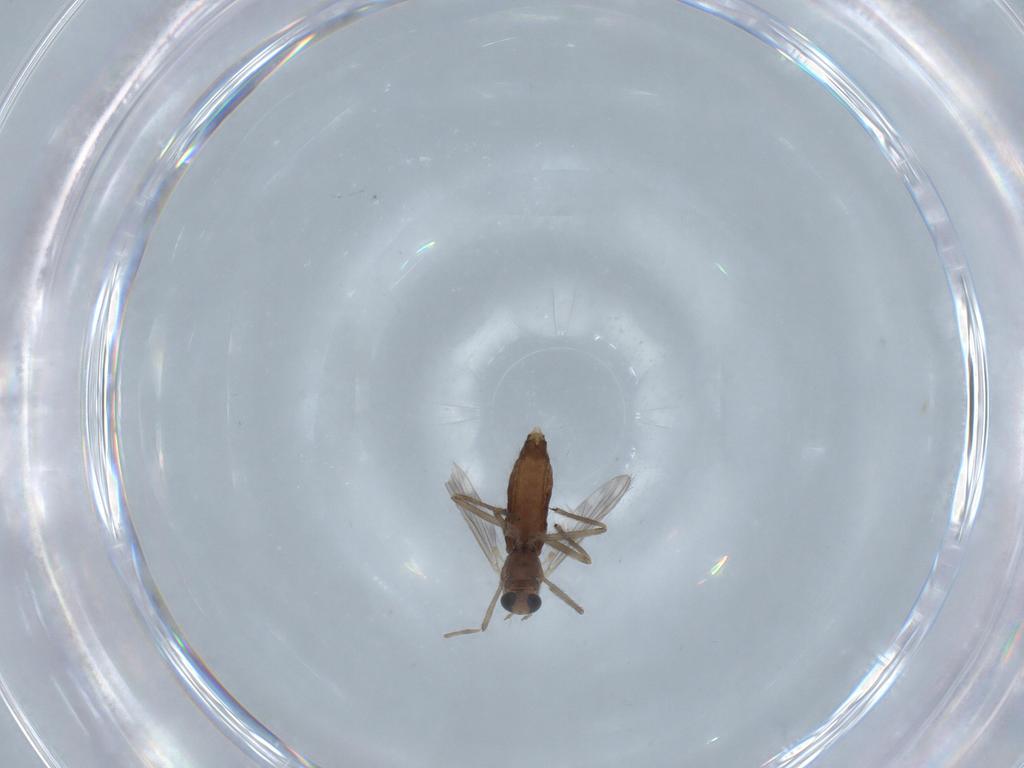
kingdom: Animalia
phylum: Arthropoda
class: Insecta
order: Diptera
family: Chironomidae
